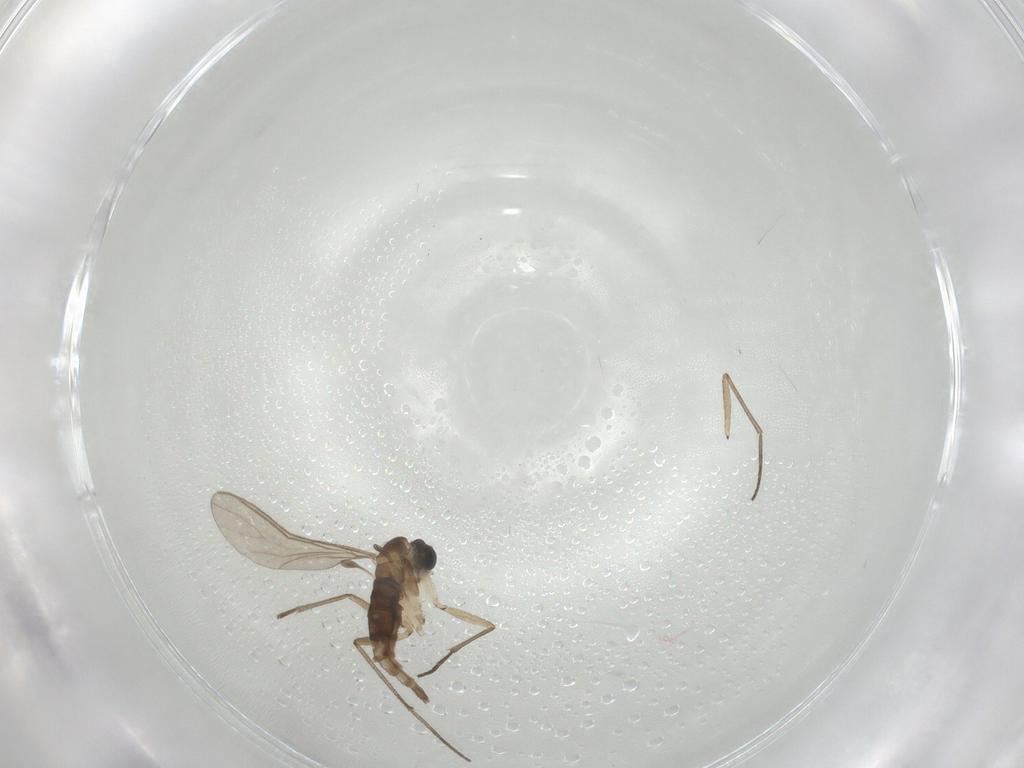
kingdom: Animalia
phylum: Arthropoda
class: Insecta
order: Diptera
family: Sciaridae
